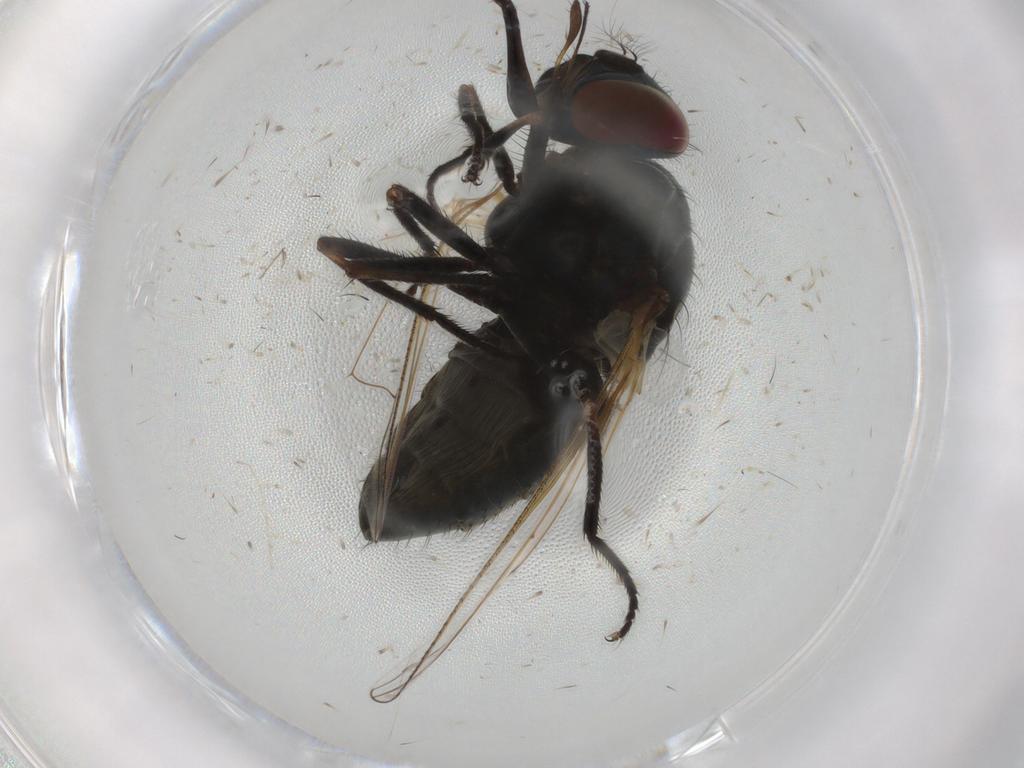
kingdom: Animalia
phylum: Arthropoda
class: Insecta
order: Diptera
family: Muscidae
